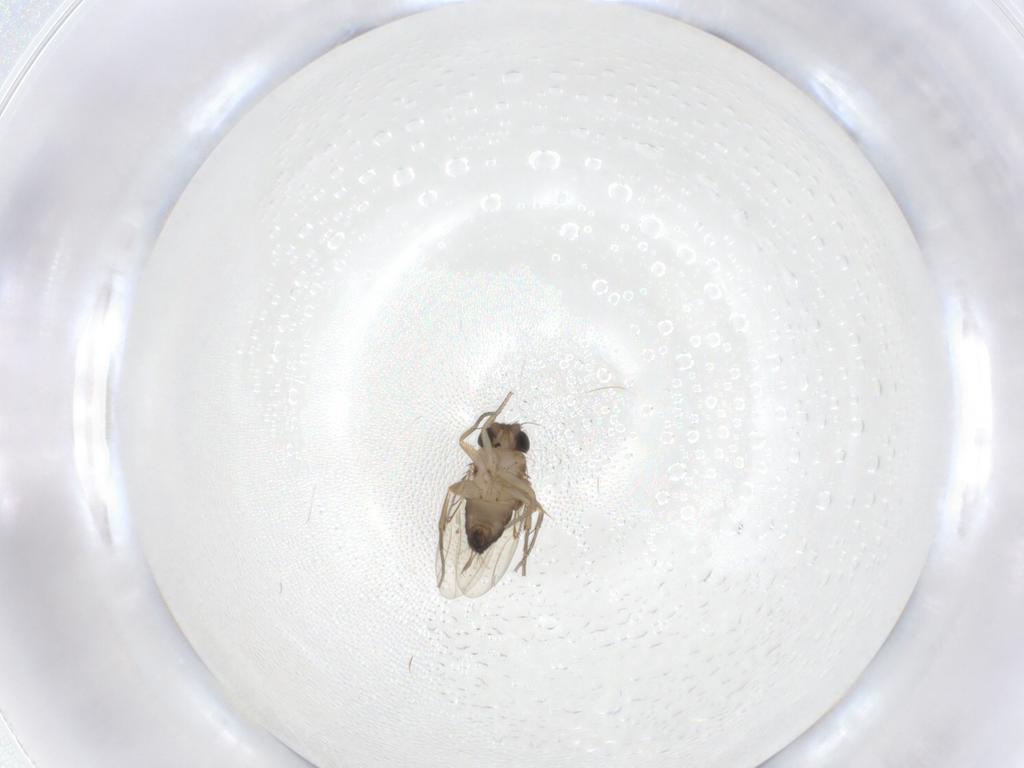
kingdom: Animalia
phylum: Arthropoda
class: Insecta
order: Diptera
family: Cecidomyiidae
